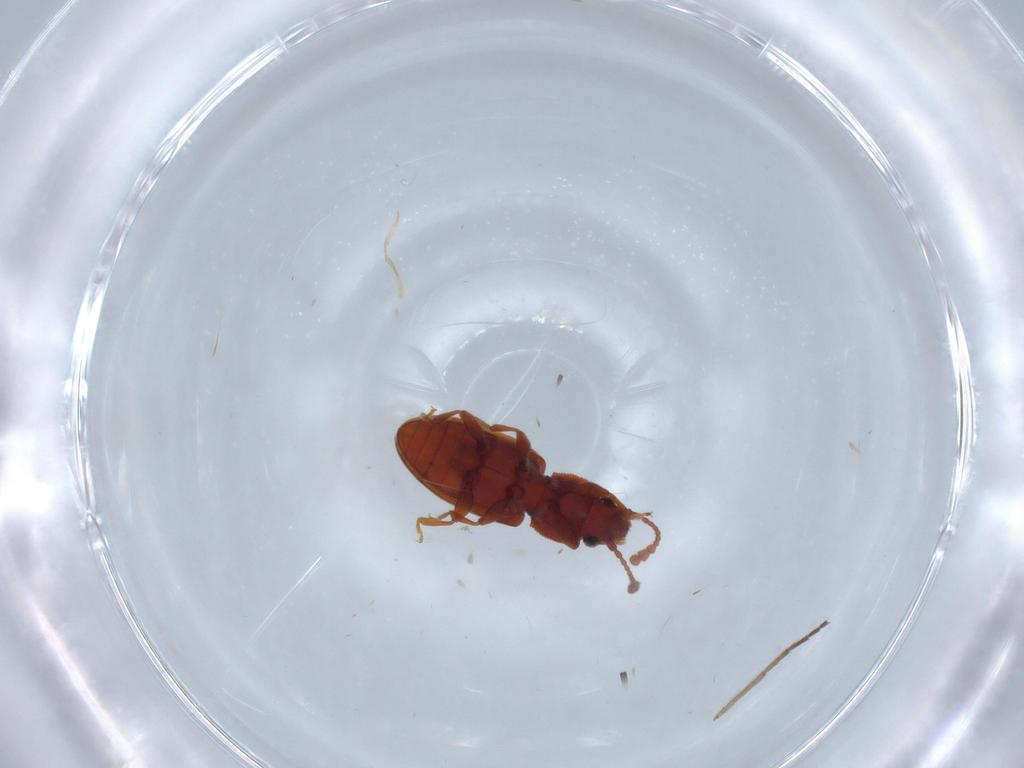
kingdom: Animalia
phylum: Arthropoda
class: Insecta
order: Coleoptera
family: Silvanidae
